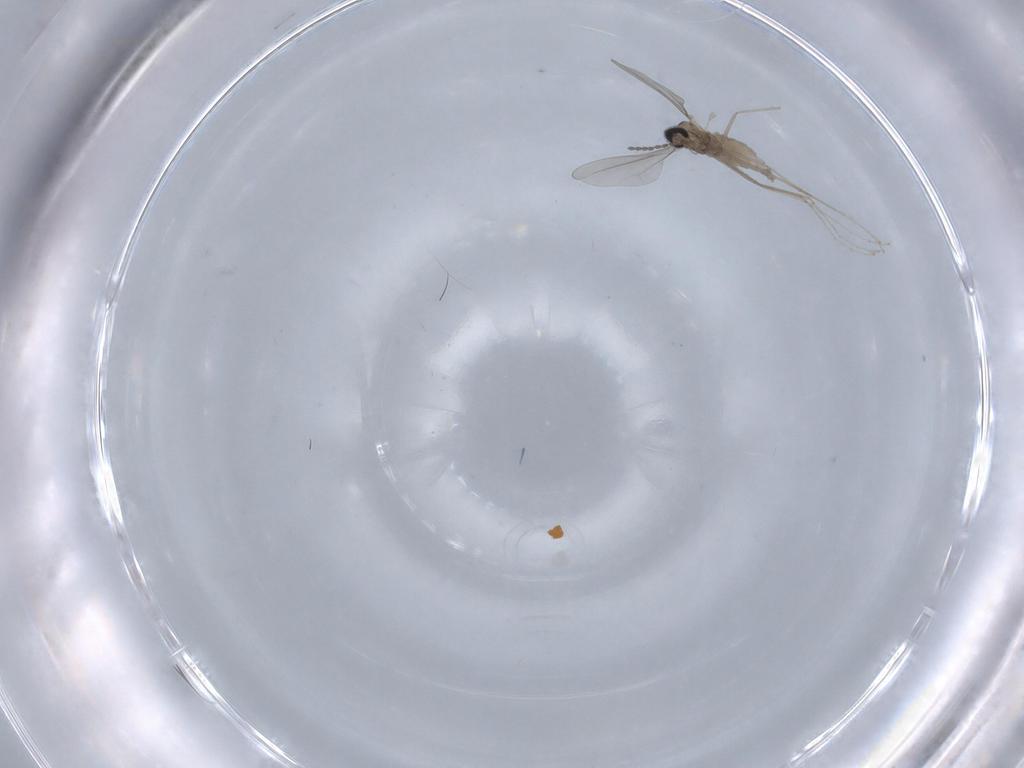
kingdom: Animalia
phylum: Arthropoda
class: Insecta
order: Diptera
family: Cecidomyiidae
